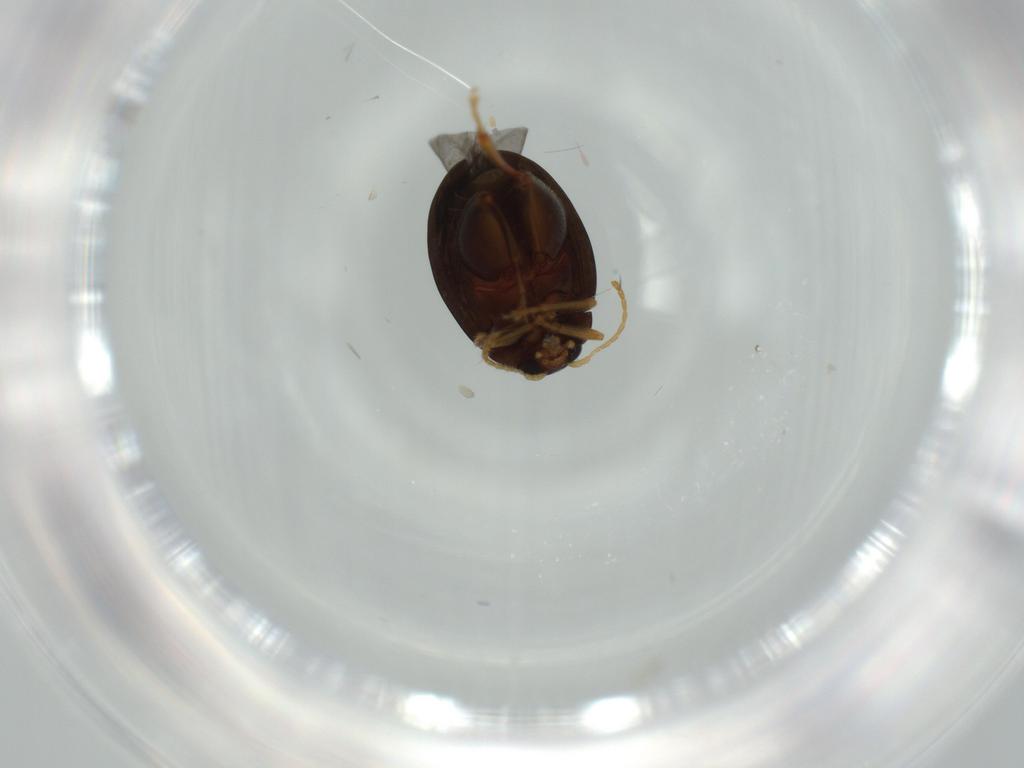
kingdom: Animalia
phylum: Arthropoda
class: Insecta
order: Coleoptera
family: Chrysomelidae
